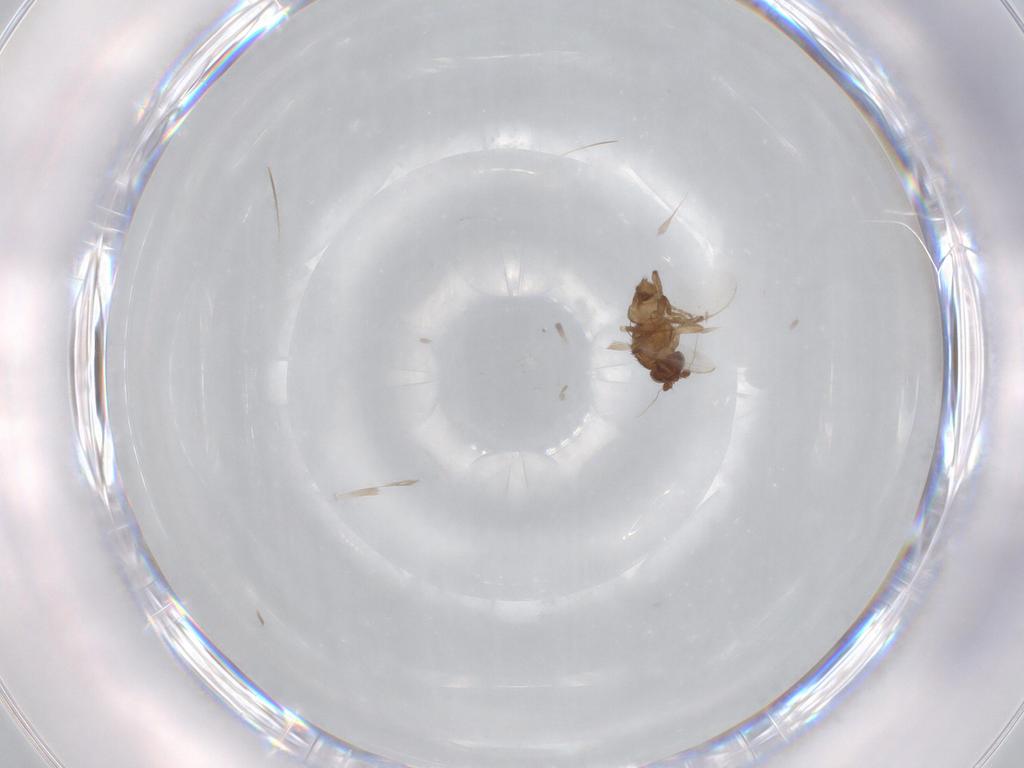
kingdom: Animalia
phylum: Arthropoda
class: Insecta
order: Diptera
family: Sphaeroceridae
